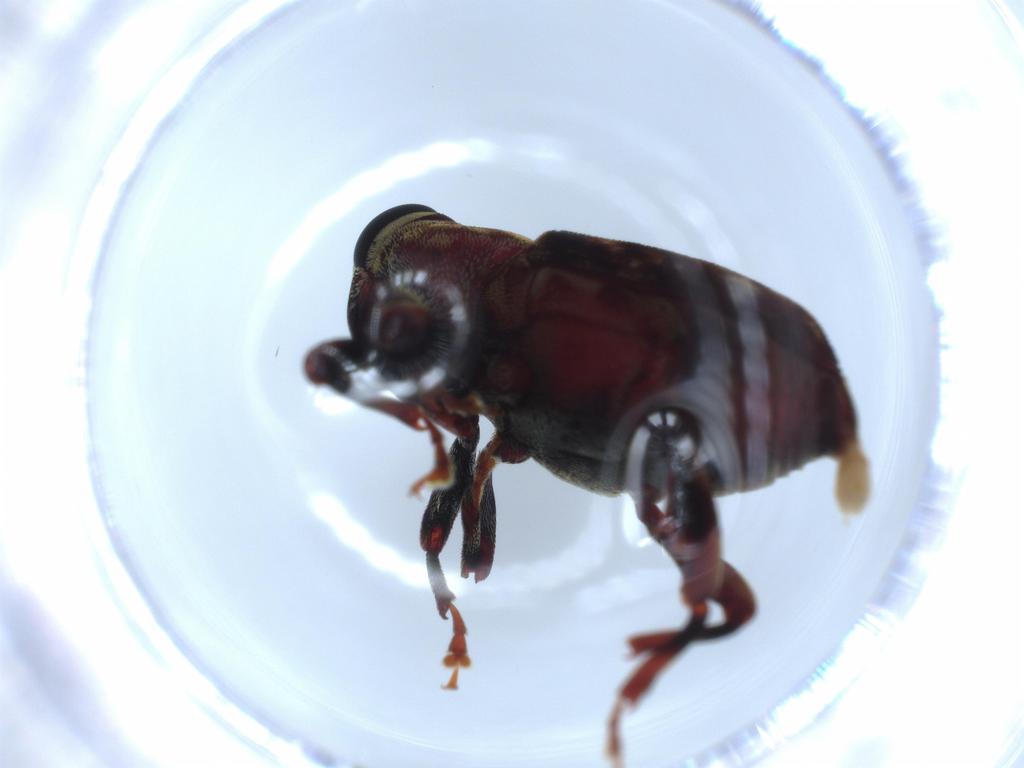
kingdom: Animalia
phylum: Arthropoda
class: Insecta
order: Coleoptera
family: Curculionidae
